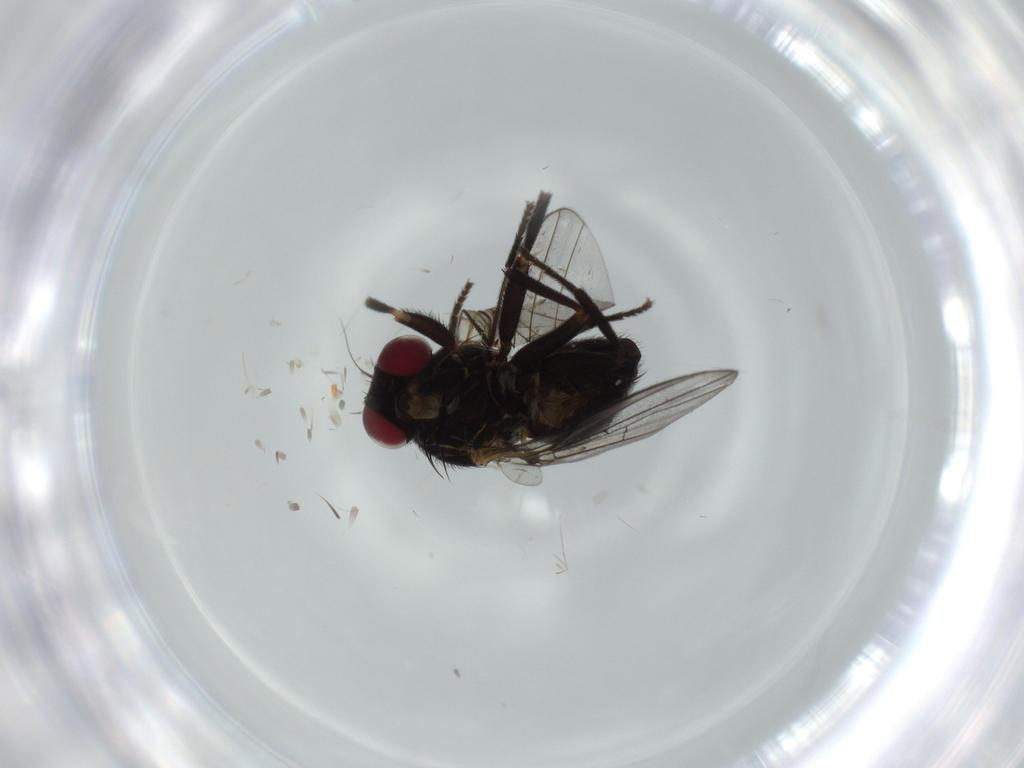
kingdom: Animalia
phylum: Arthropoda
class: Insecta
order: Diptera
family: Agromyzidae
